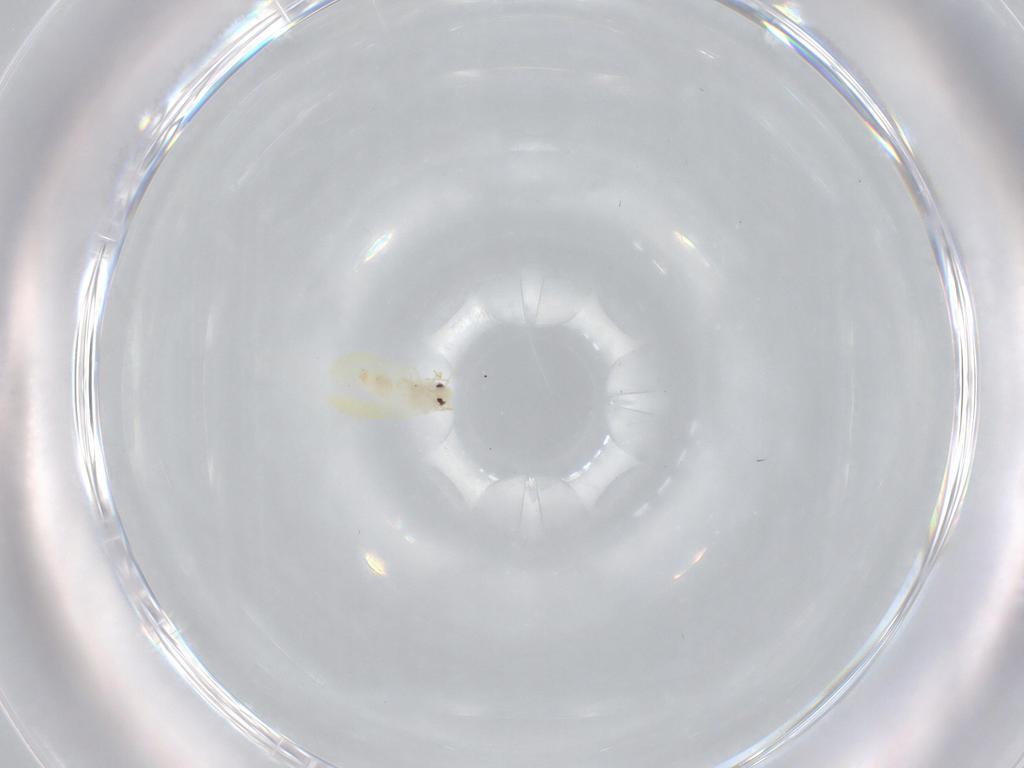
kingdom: Animalia
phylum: Arthropoda
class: Insecta
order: Hemiptera
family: Aleyrodidae
